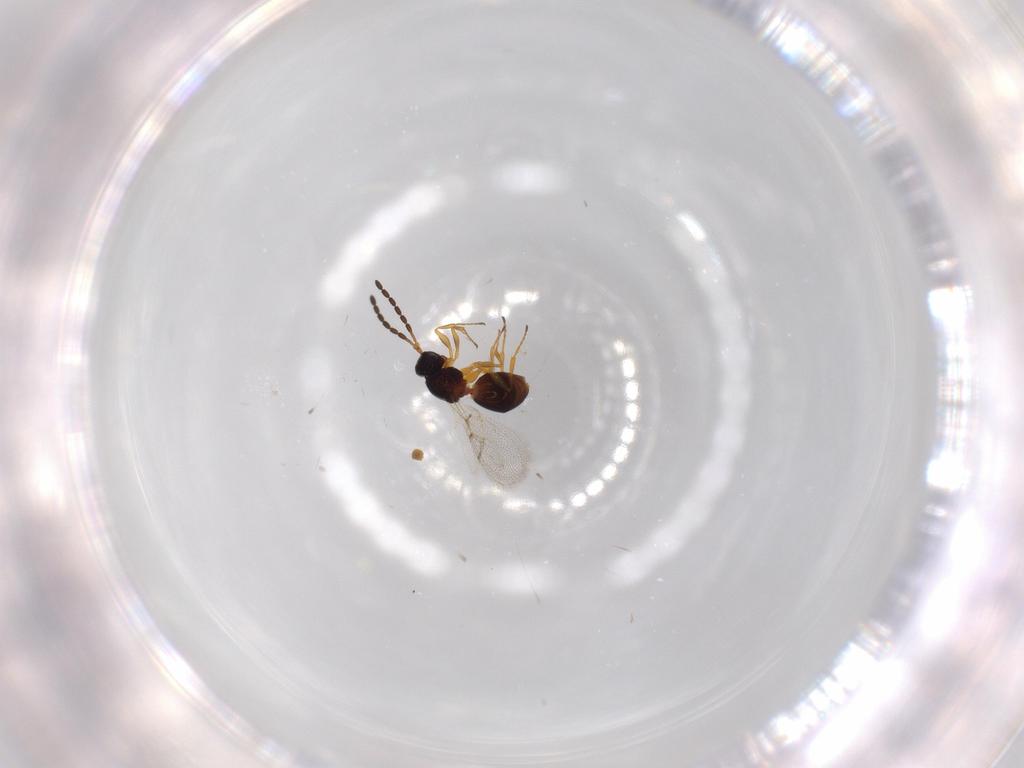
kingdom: Animalia
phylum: Arthropoda
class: Insecta
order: Hymenoptera
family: Figitidae
